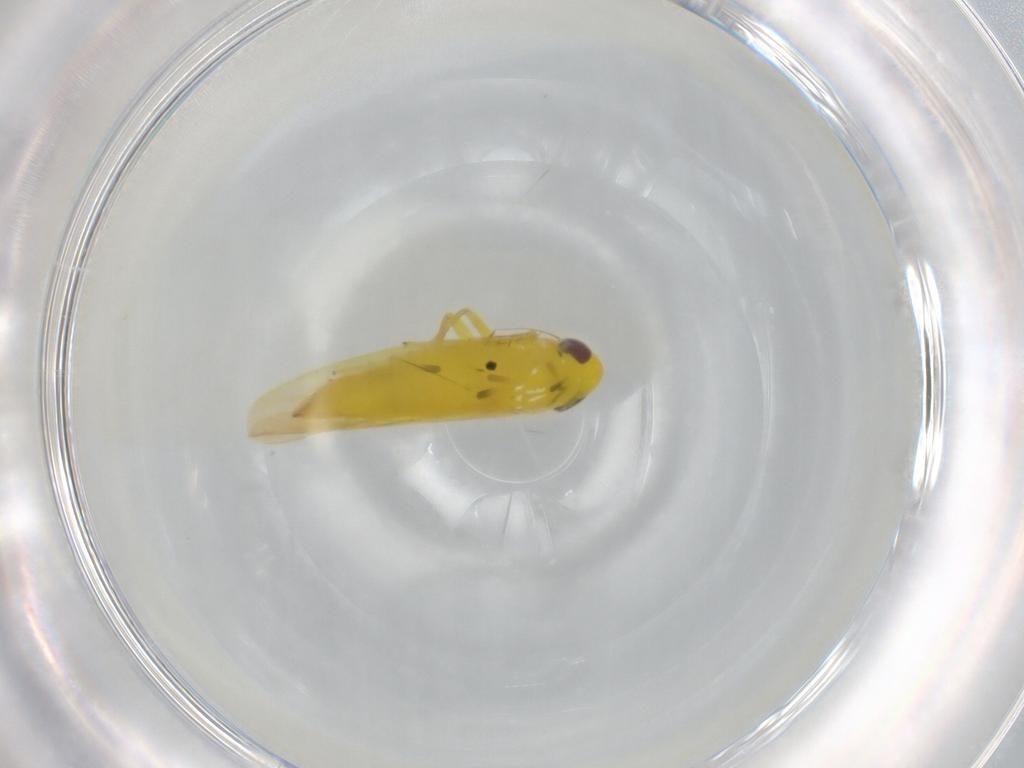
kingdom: Animalia
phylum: Arthropoda
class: Insecta
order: Hemiptera
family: Cicadellidae
